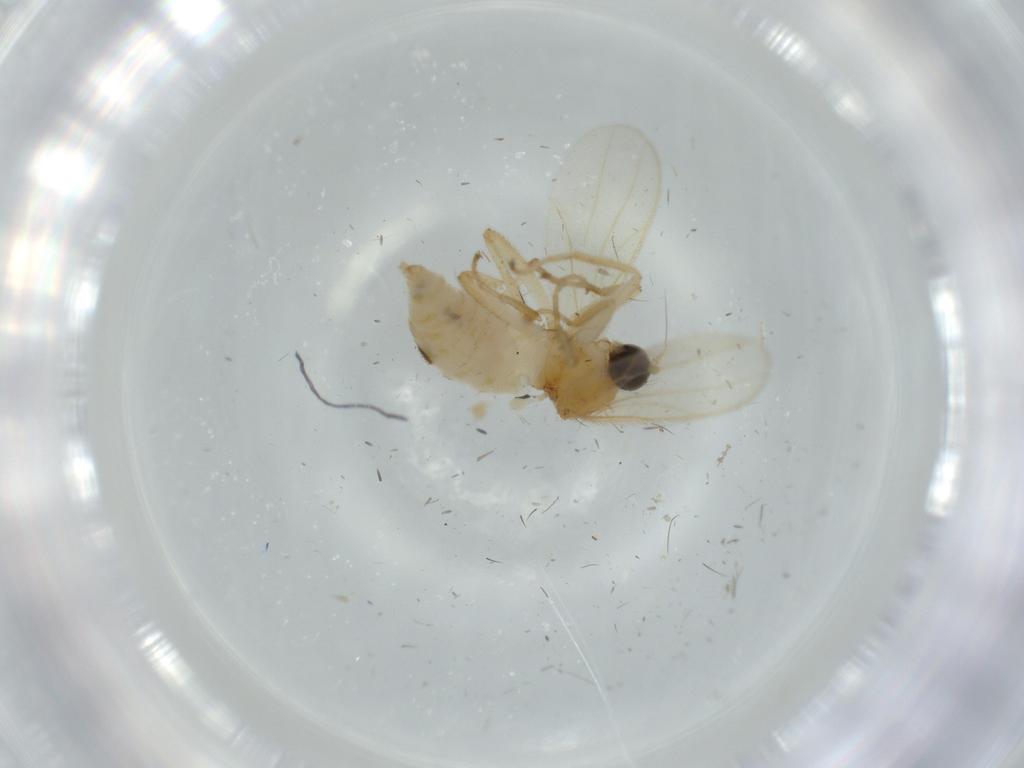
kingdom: Animalia
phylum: Arthropoda
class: Insecta
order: Diptera
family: Hybotidae
